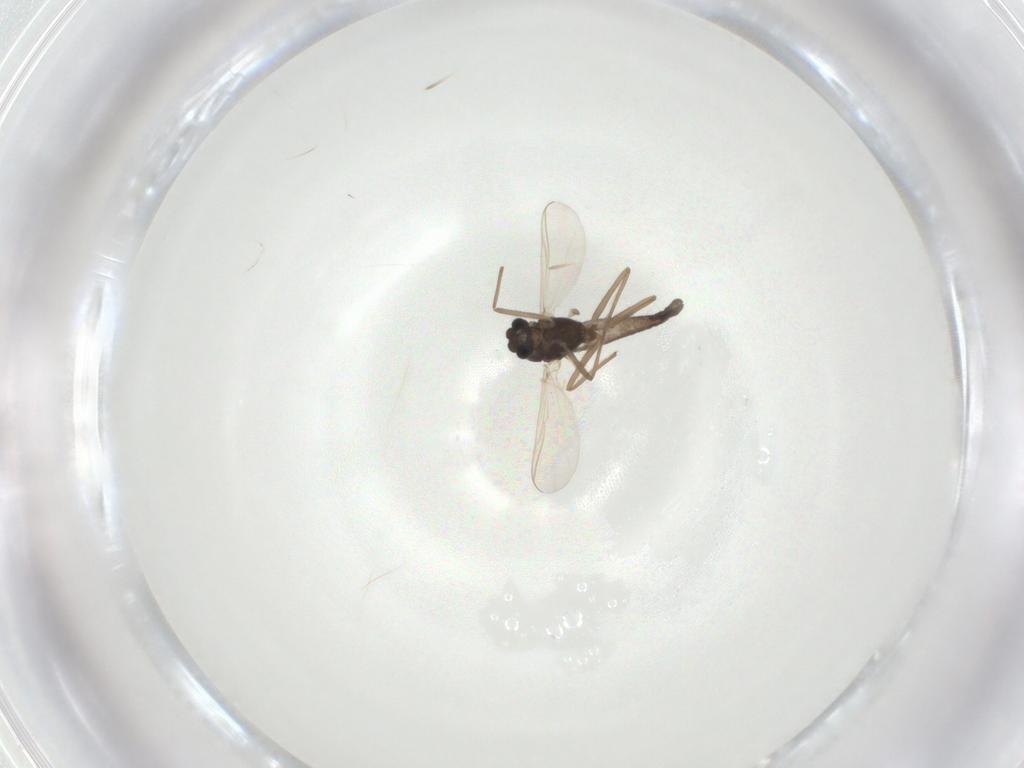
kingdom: Animalia
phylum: Arthropoda
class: Insecta
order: Diptera
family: Chironomidae
